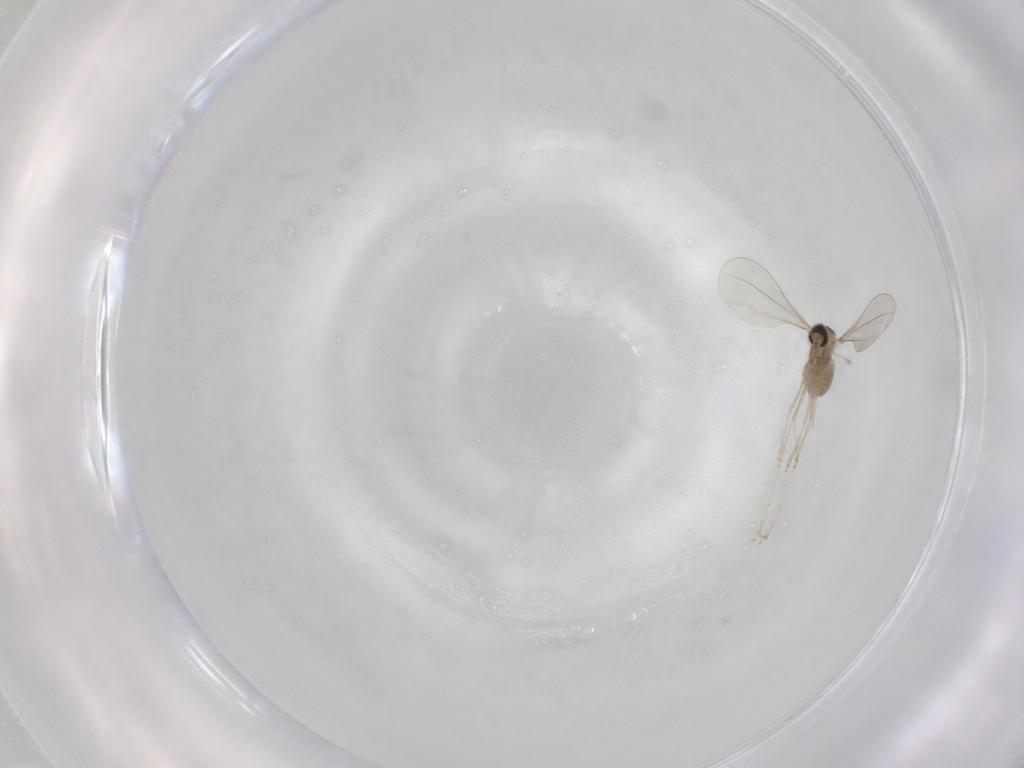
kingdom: Animalia
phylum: Arthropoda
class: Insecta
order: Diptera
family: Cecidomyiidae
